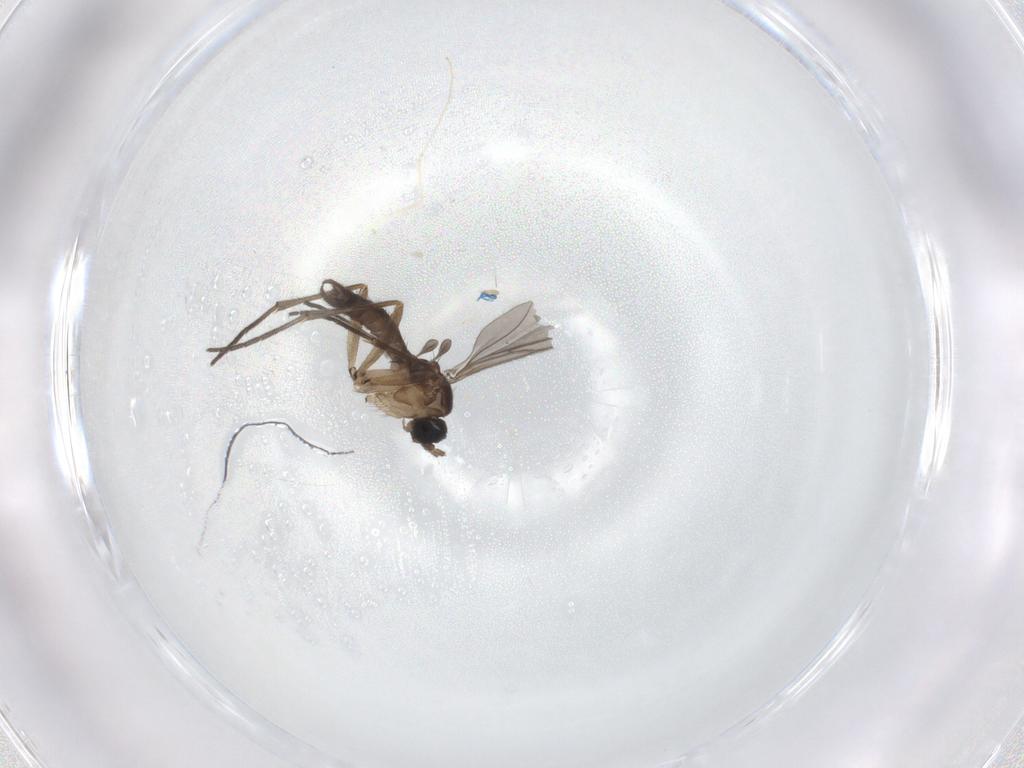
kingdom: Animalia
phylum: Arthropoda
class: Insecta
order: Diptera
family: Sciaridae
